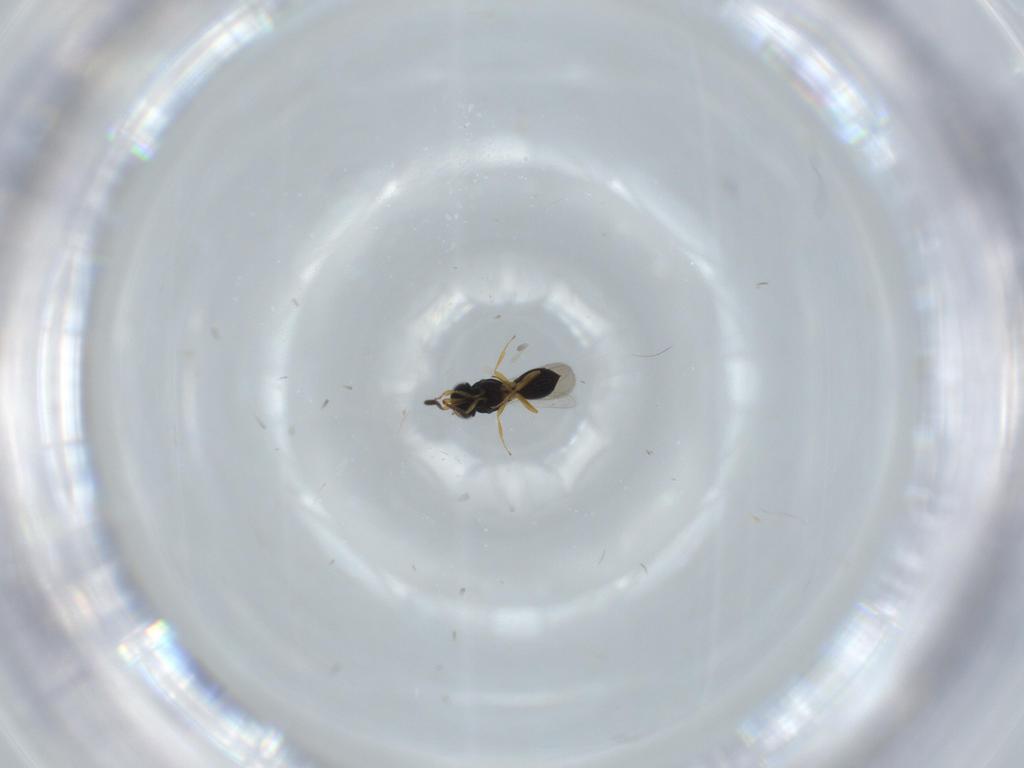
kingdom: Animalia
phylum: Arthropoda
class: Insecta
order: Hymenoptera
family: Scelionidae
